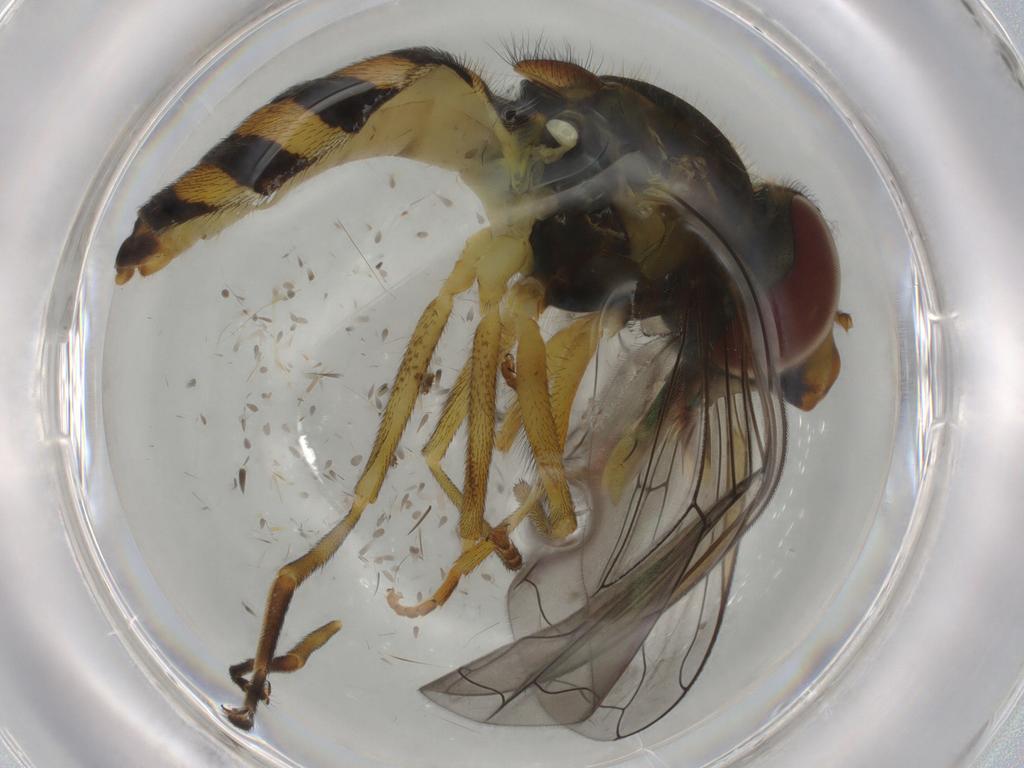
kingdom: Animalia
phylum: Arthropoda
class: Insecta
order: Diptera
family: Syrphidae
